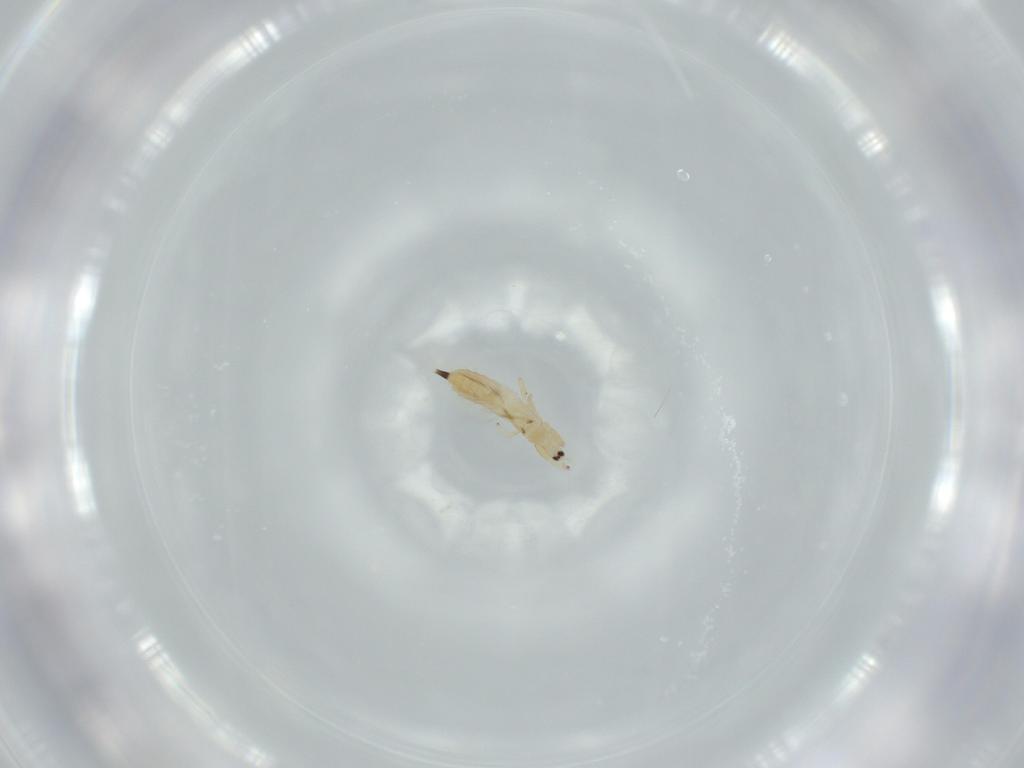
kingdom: Animalia
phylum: Arthropoda
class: Insecta
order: Thysanoptera
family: Phlaeothripidae
